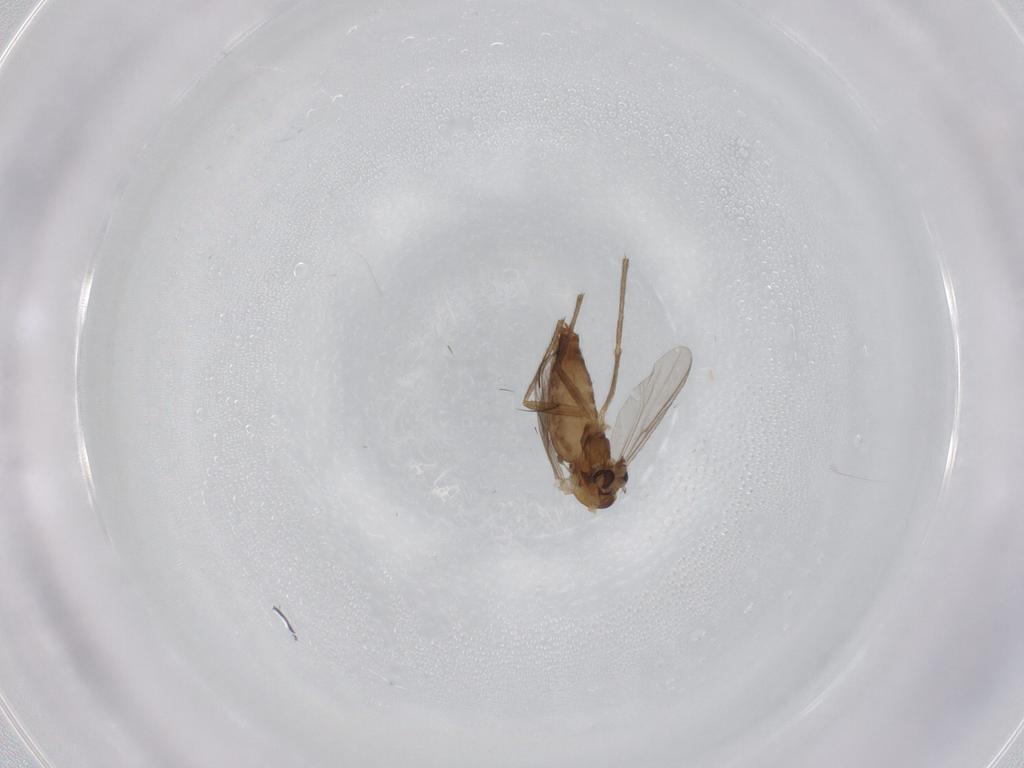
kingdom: Animalia
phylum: Arthropoda
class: Insecta
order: Diptera
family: Chironomidae
